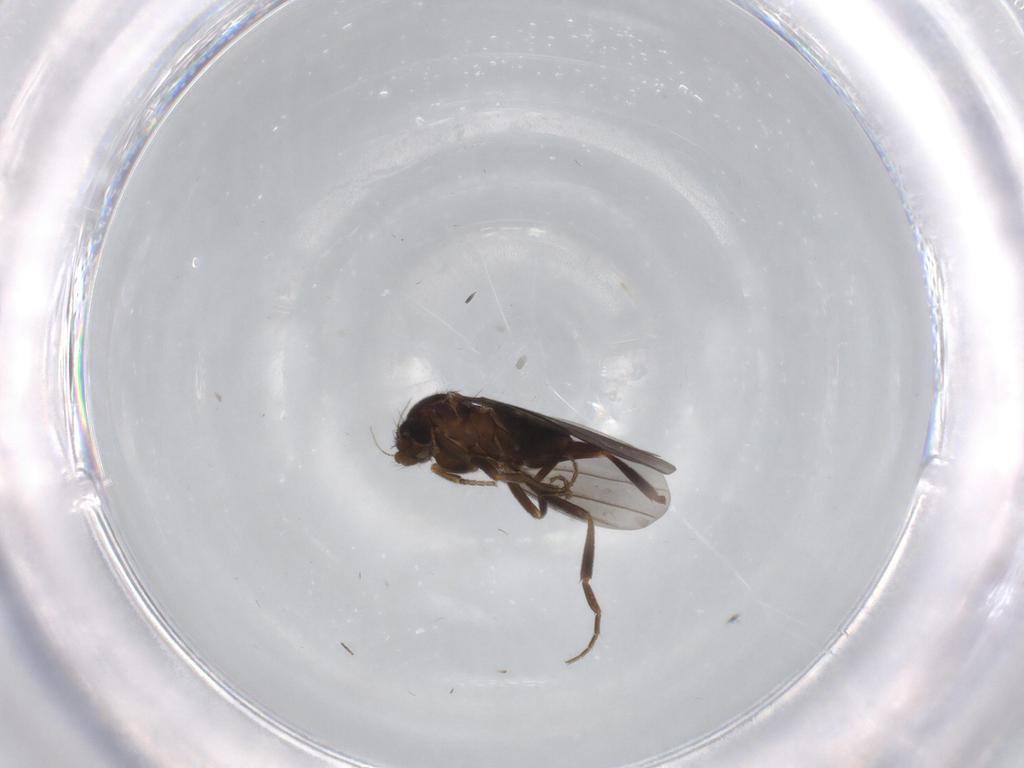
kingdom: Animalia
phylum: Arthropoda
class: Insecta
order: Diptera
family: Phoridae
